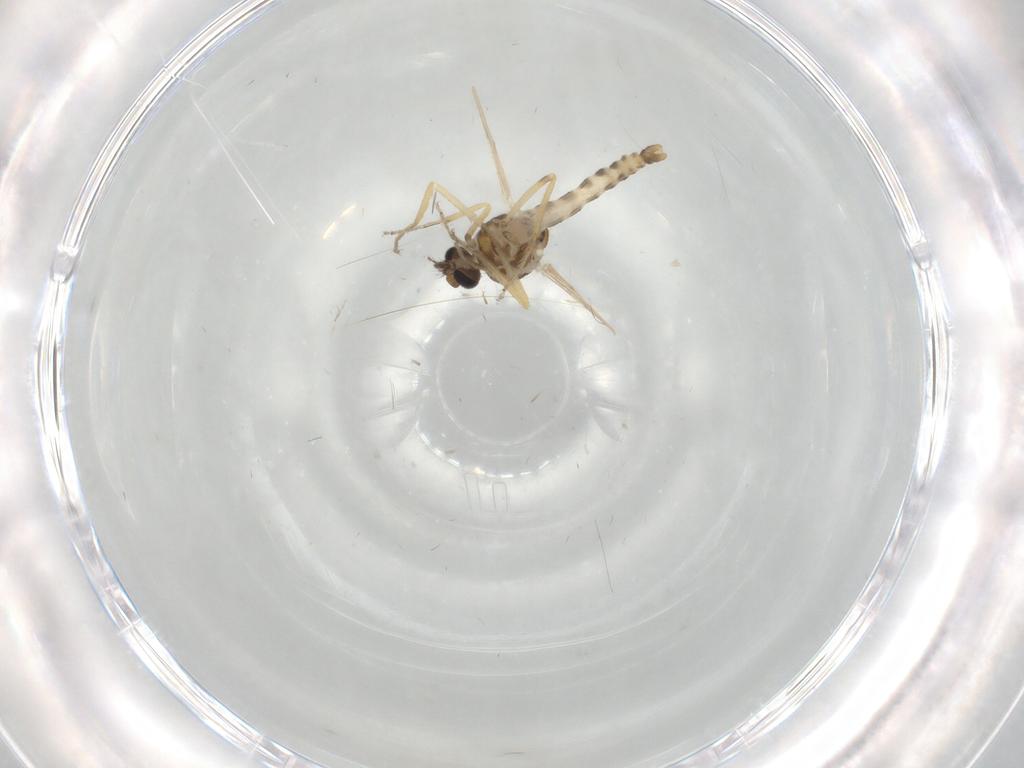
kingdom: Animalia
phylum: Arthropoda
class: Insecta
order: Diptera
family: Ceratopogonidae
